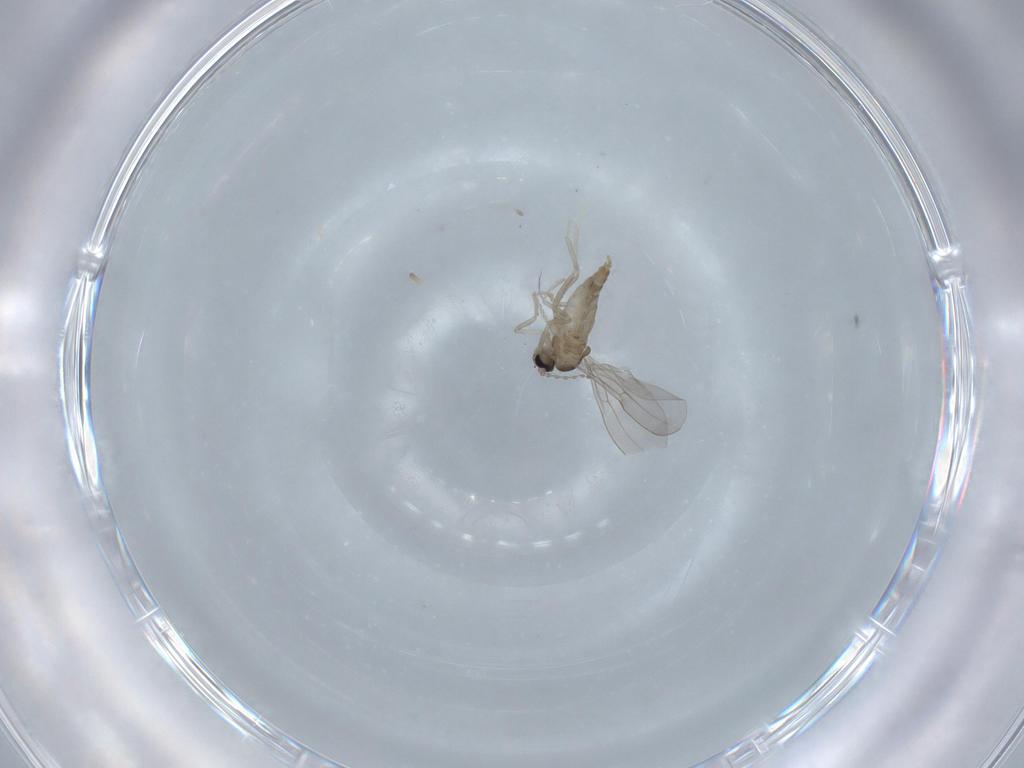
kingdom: Animalia
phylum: Arthropoda
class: Insecta
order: Diptera
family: Cecidomyiidae
